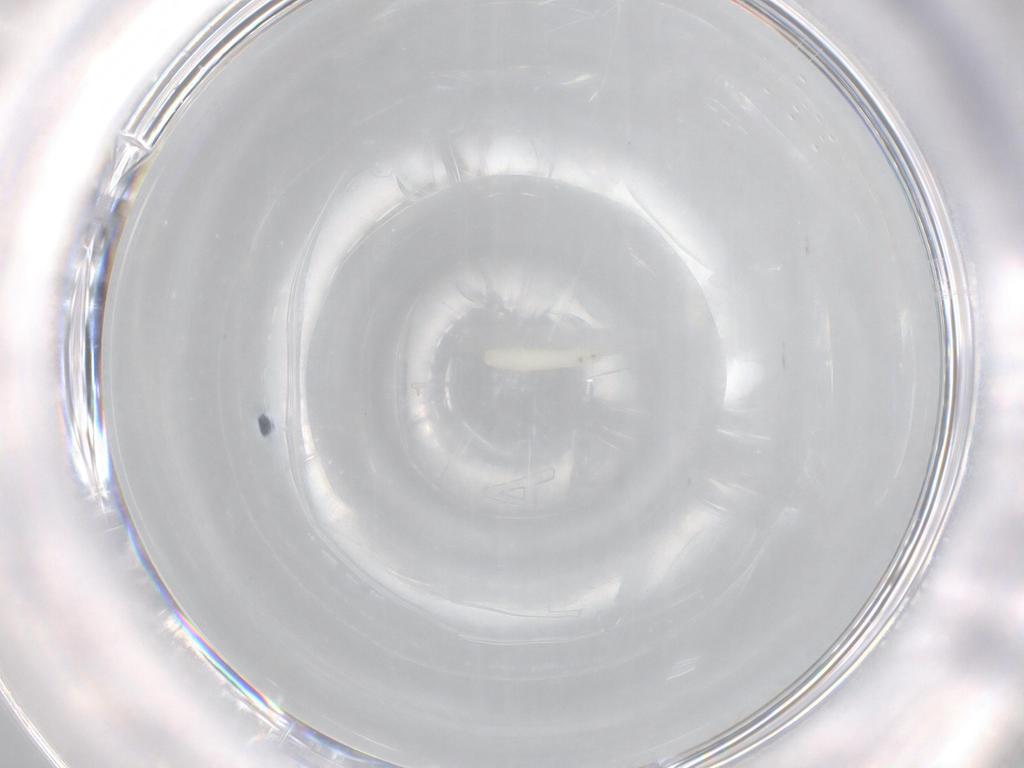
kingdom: Animalia
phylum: Arthropoda
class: Insecta
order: Diptera
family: Sarcophagidae
